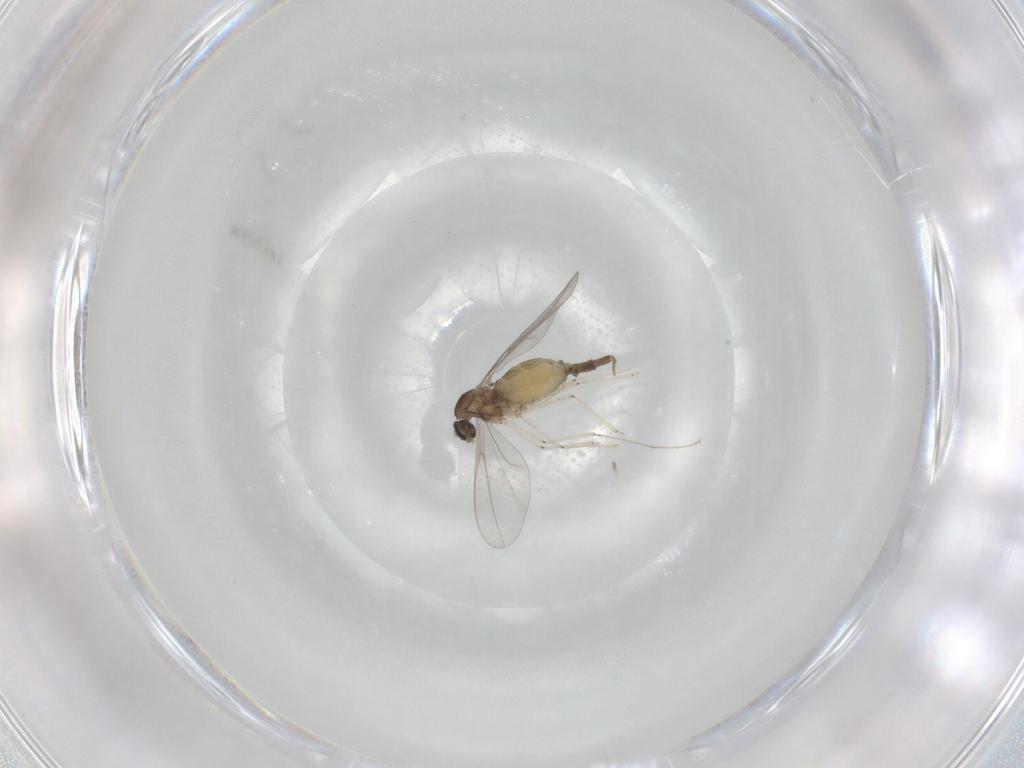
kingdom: Animalia
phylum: Arthropoda
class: Insecta
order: Diptera
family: Cecidomyiidae
